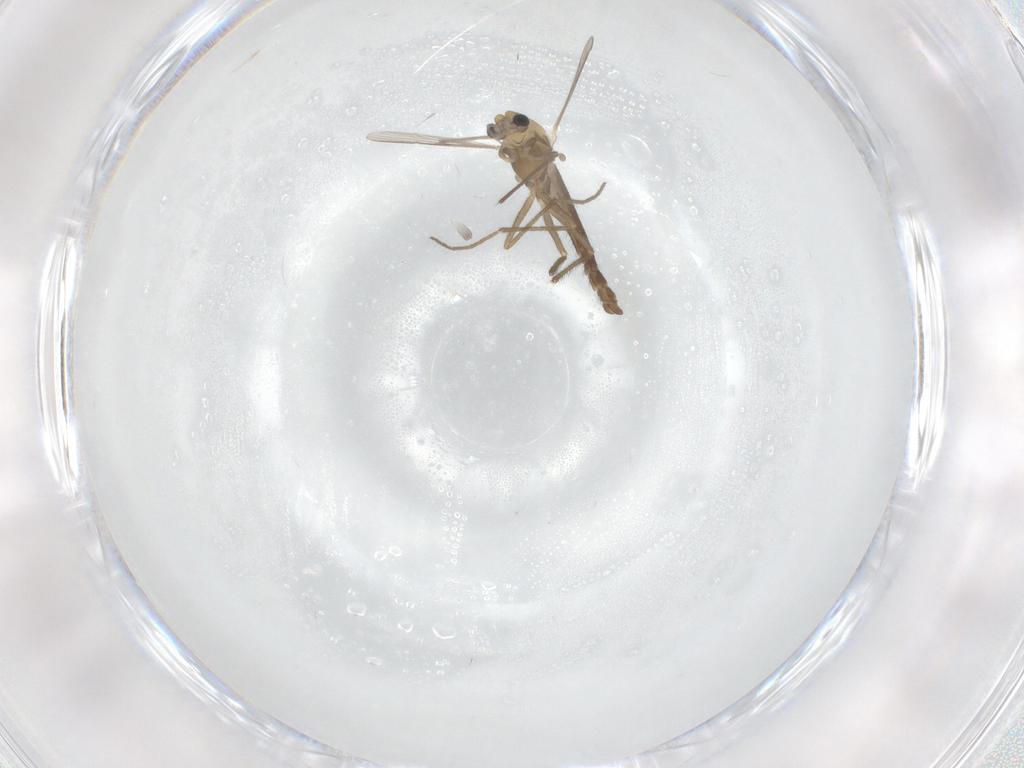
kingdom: Animalia
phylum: Arthropoda
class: Insecta
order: Diptera
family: Chironomidae
